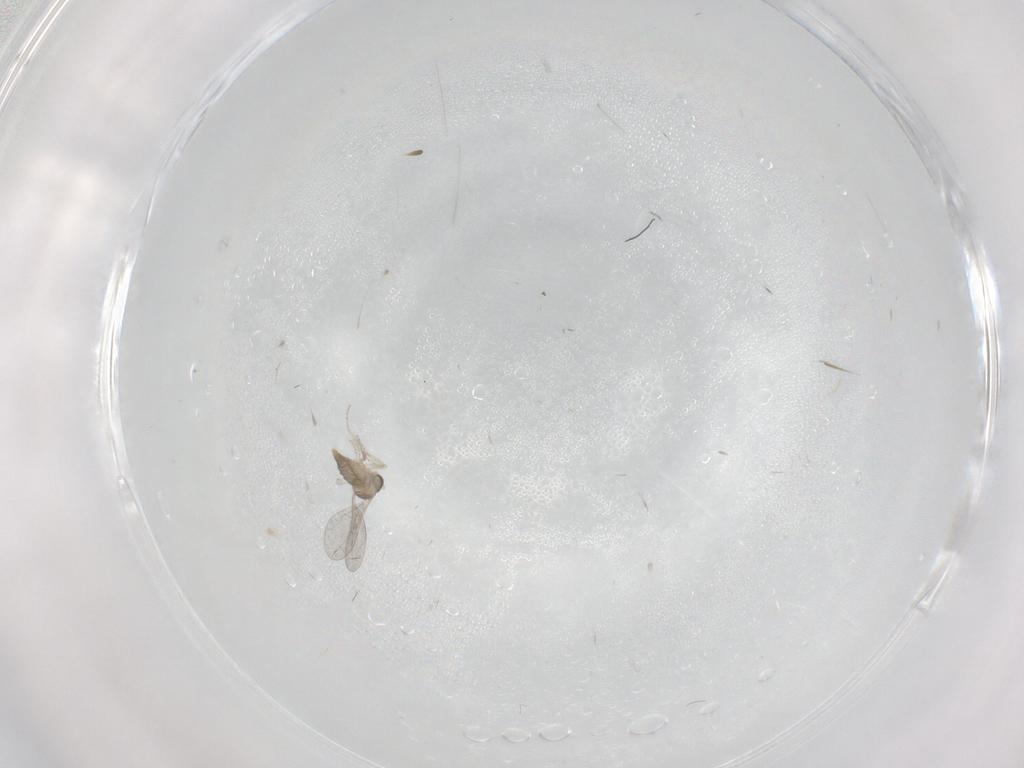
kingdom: Animalia
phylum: Arthropoda
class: Insecta
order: Diptera
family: Cecidomyiidae
